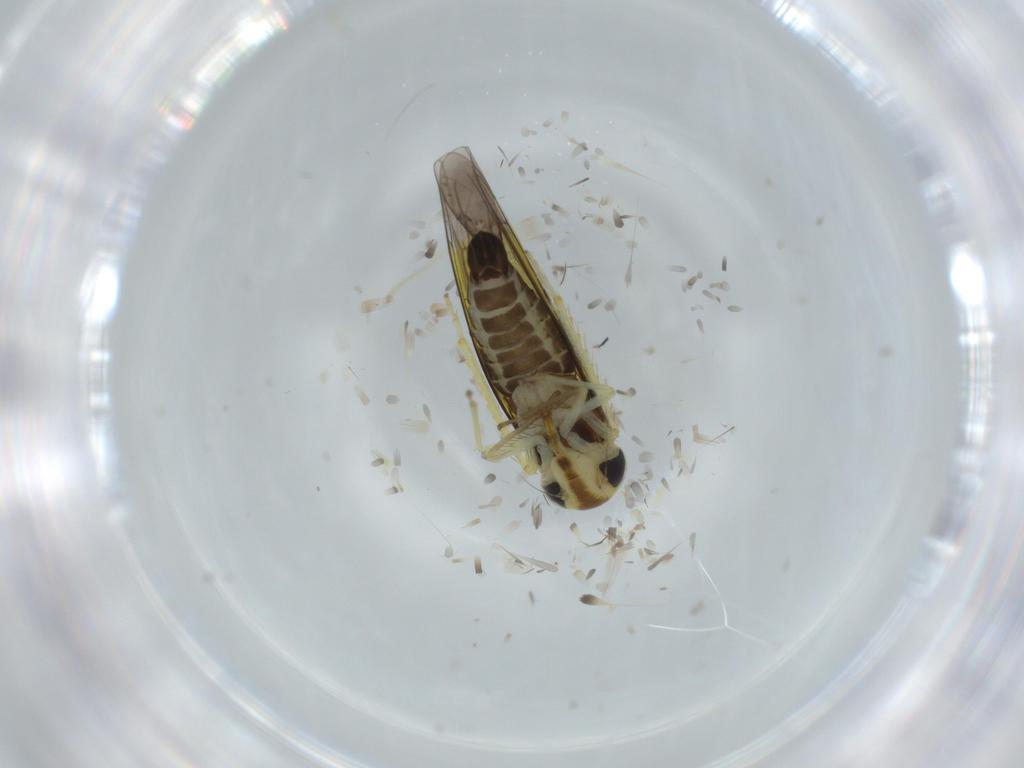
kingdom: Animalia
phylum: Arthropoda
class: Insecta
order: Hemiptera
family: Cicadellidae
